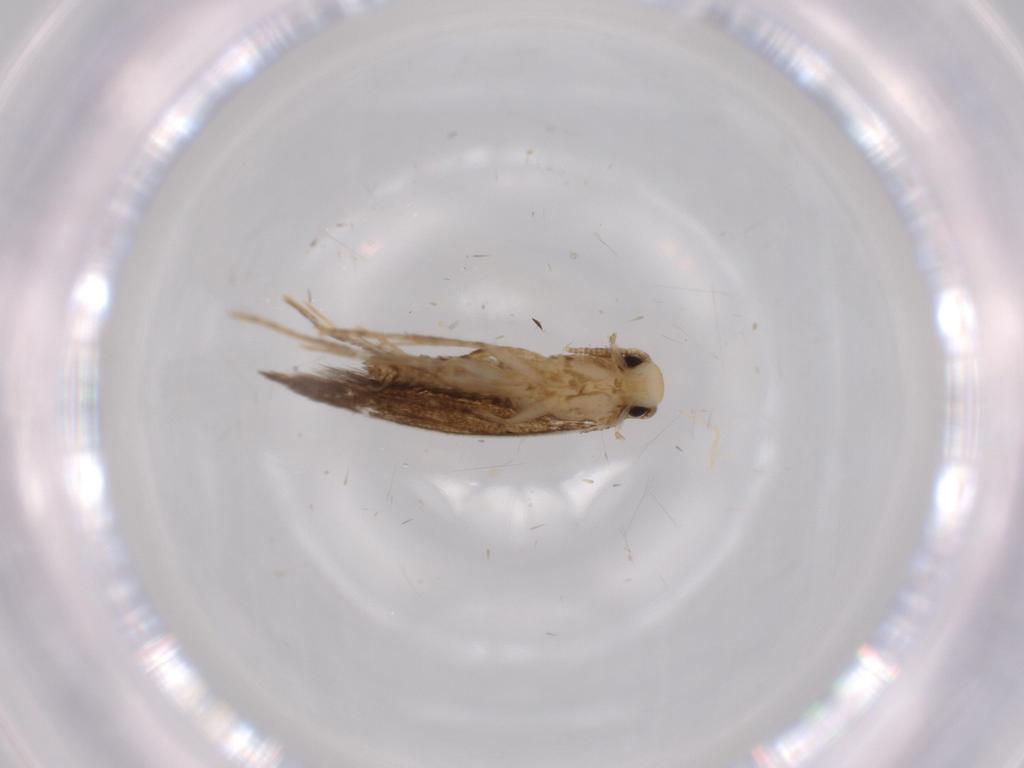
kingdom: Animalia
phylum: Arthropoda
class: Insecta
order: Lepidoptera
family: Tineidae
